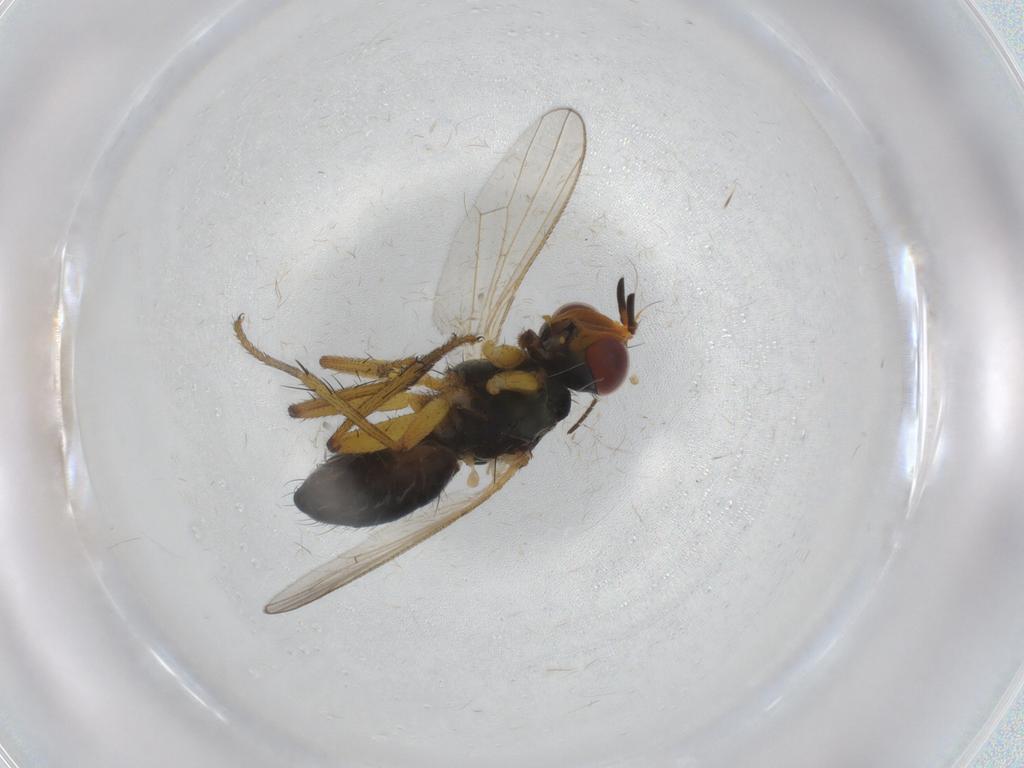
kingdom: Animalia
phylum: Arthropoda
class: Insecta
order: Diptera
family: Muscidae
